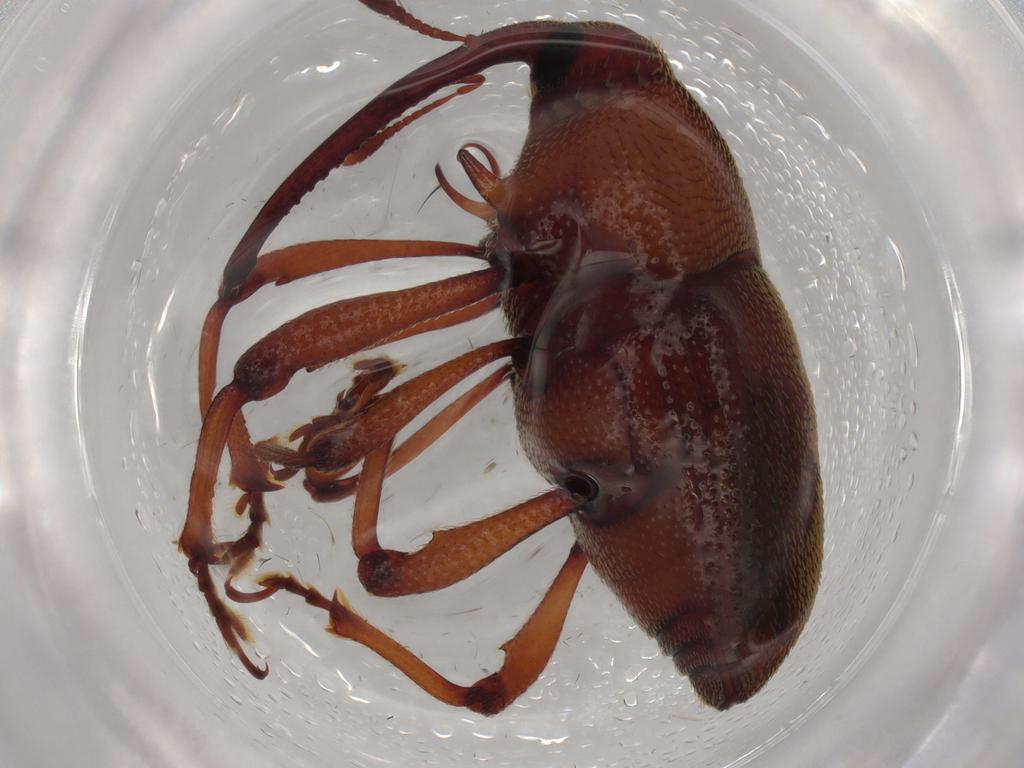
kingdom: Animalia
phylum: Arthropoda
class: Insecta
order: Coleoptera
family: Curculionidae
